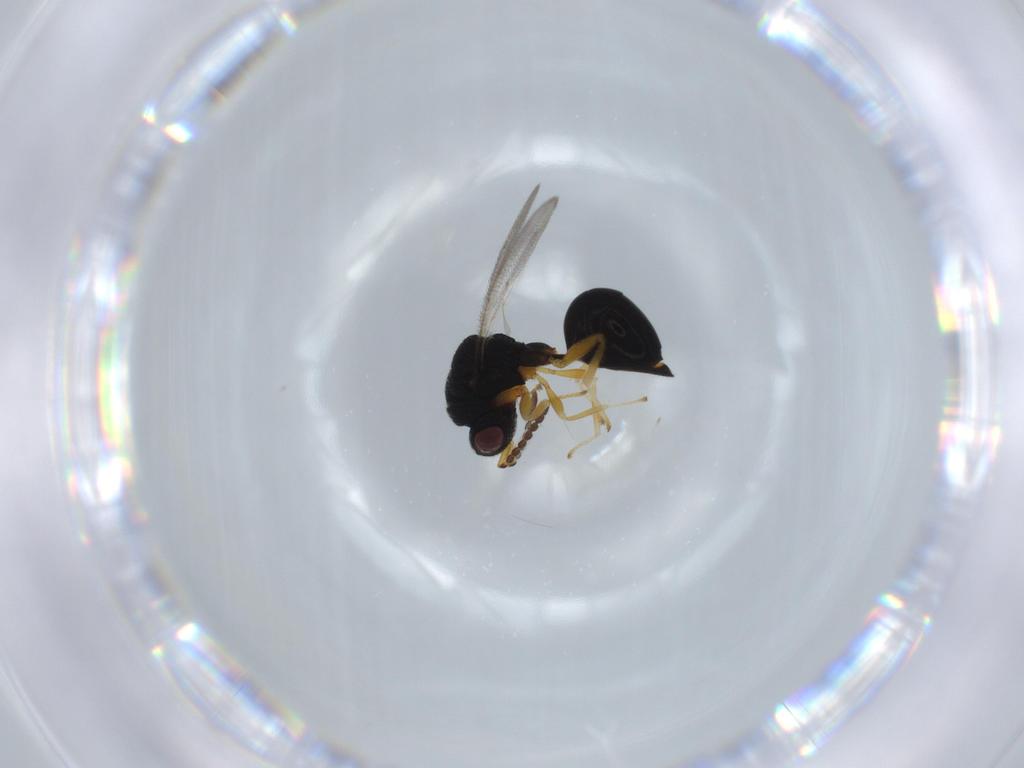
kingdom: Animalia
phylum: Arthropoda
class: Insecta
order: Hymenoptera
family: Eurytomidae
